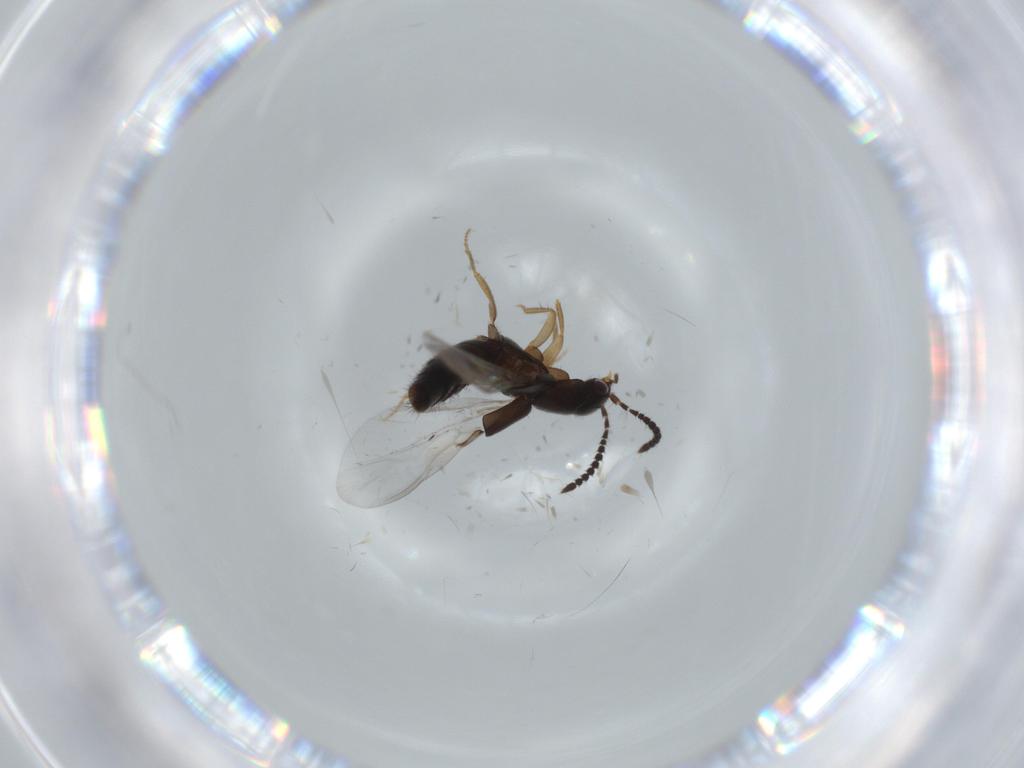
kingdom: Animalia
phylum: Arthropoda
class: Insecta
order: Coleoptera
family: Staphylinidae
